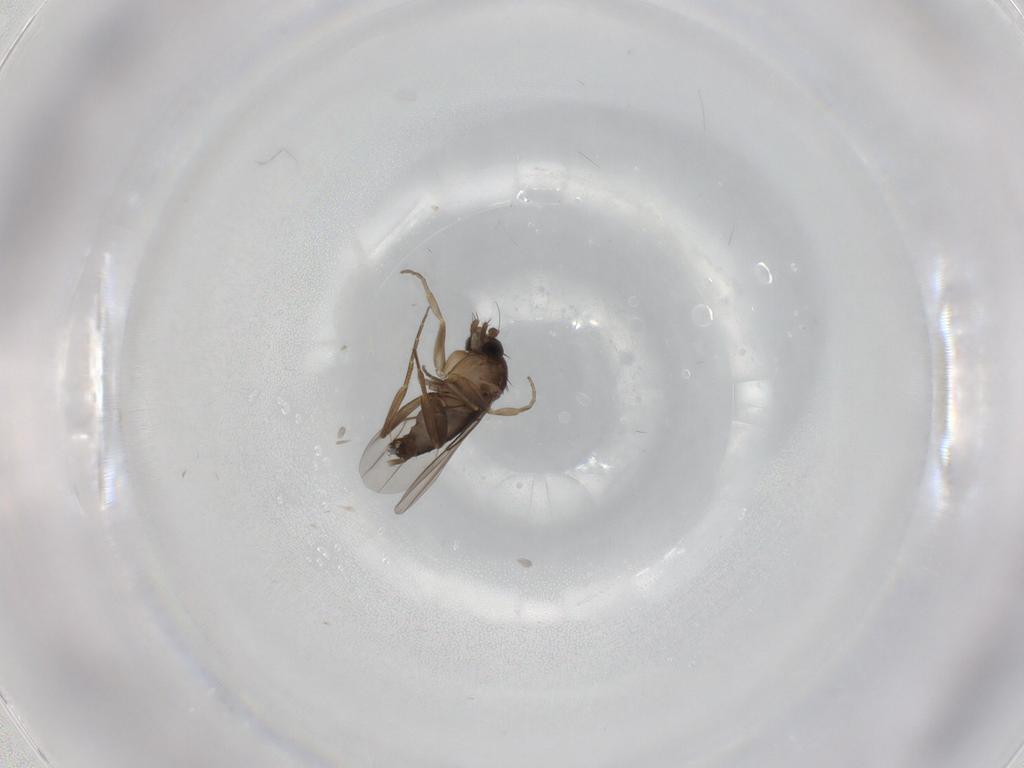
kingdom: Animalia
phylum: Arthropoda
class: Insecta
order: Diptera
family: Phoridae
